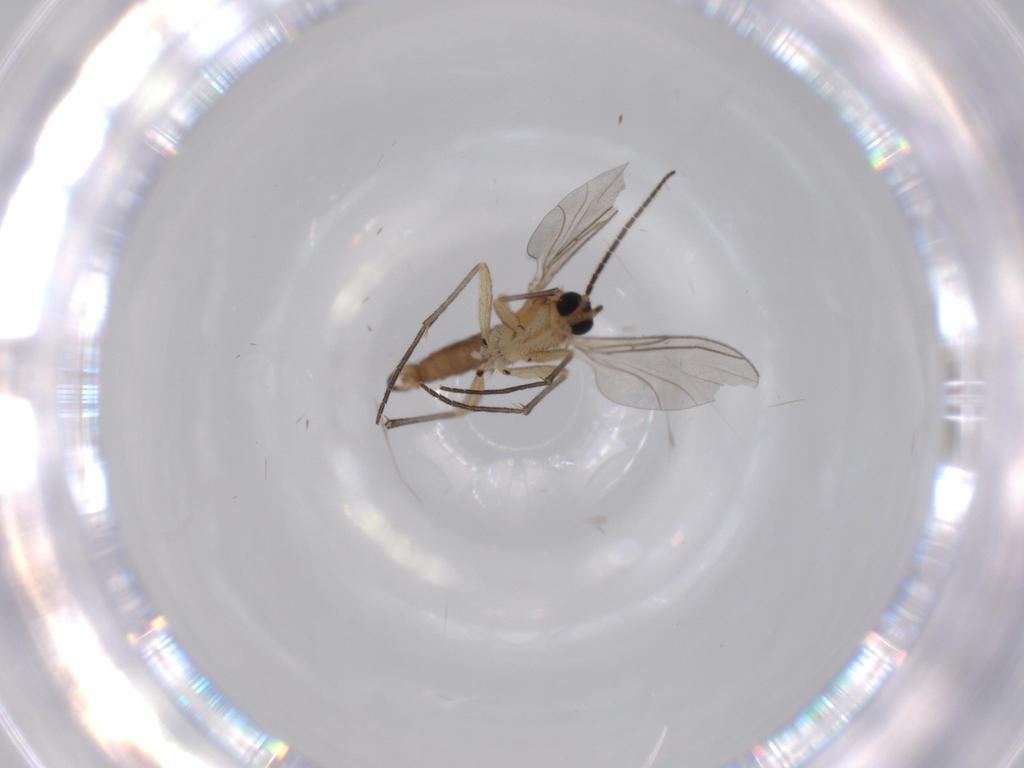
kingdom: Animalia
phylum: Arthropoda
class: Insecta
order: Diptera
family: Sciaridae
